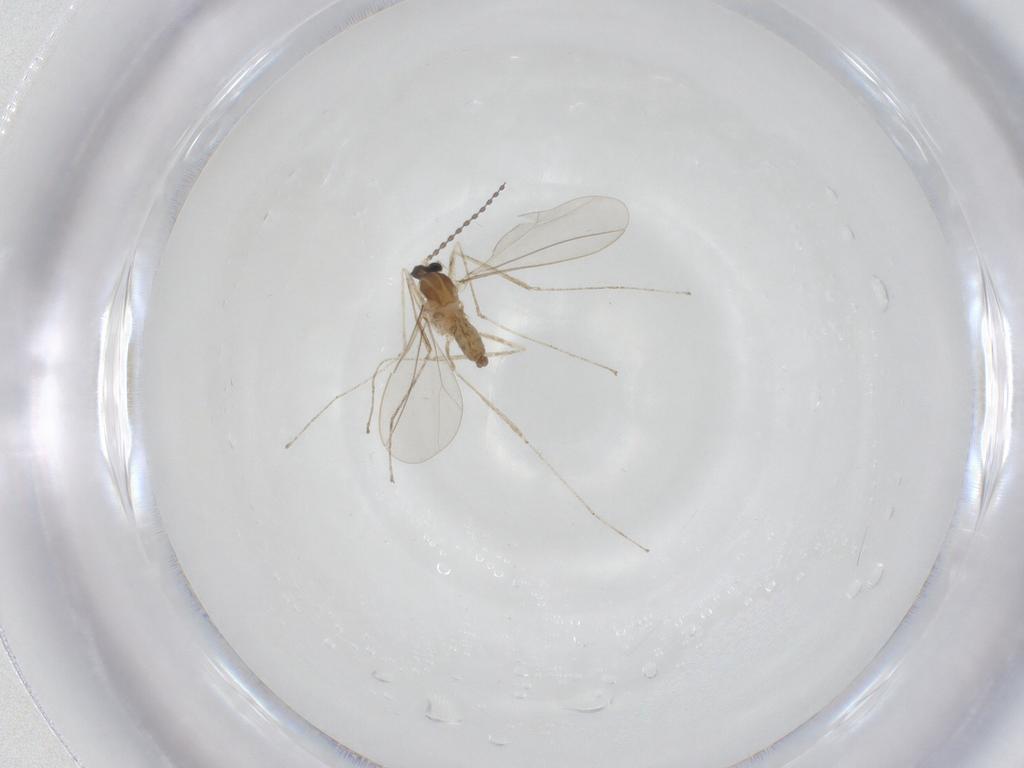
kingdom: Animalia
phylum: Arthropoda
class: Insecta
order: Diptera
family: Cecidomyiidae
